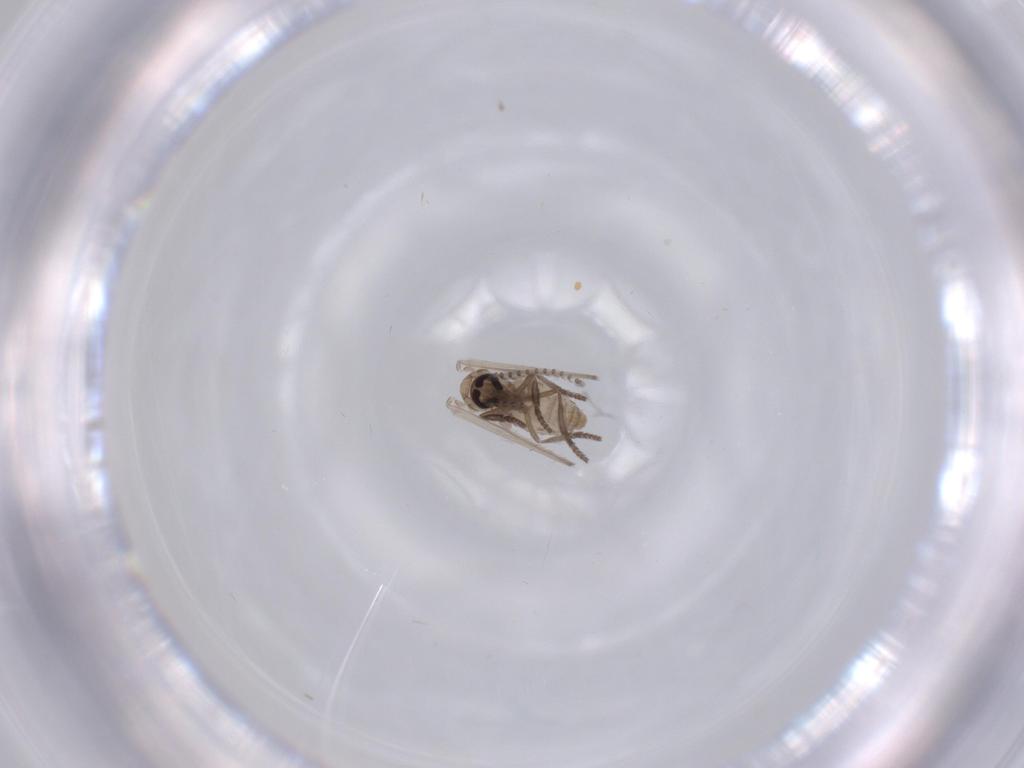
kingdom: Animalia
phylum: Arthropoda
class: Insecta
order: Diptera
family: Psychodidae
